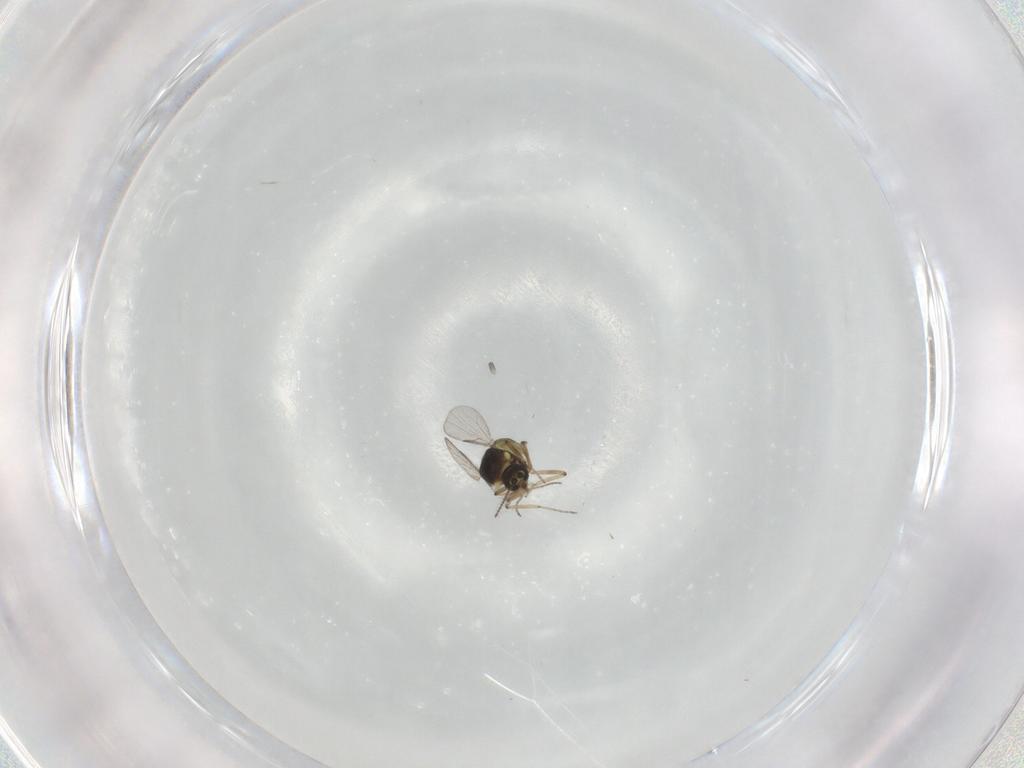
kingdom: Animalia
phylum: Arthropoda
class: Insecta
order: Diptera
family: Ceratopogonidae
